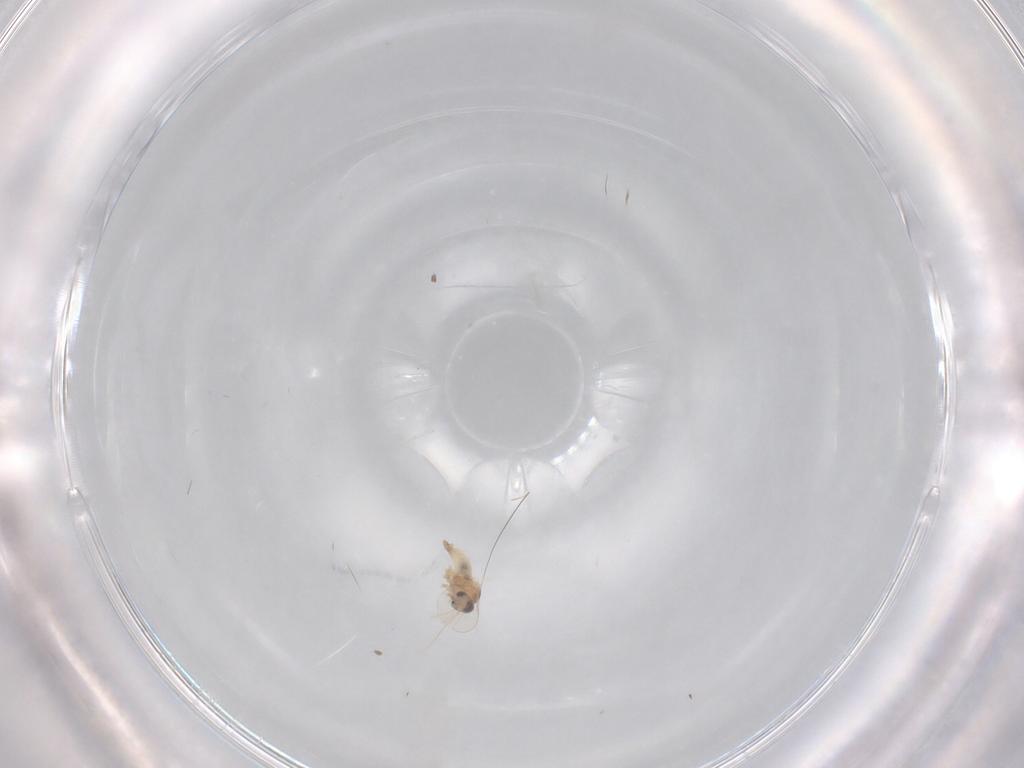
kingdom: Animalia
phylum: Arthropoda
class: Insecta
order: Diptera
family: Cecidomyiidae
